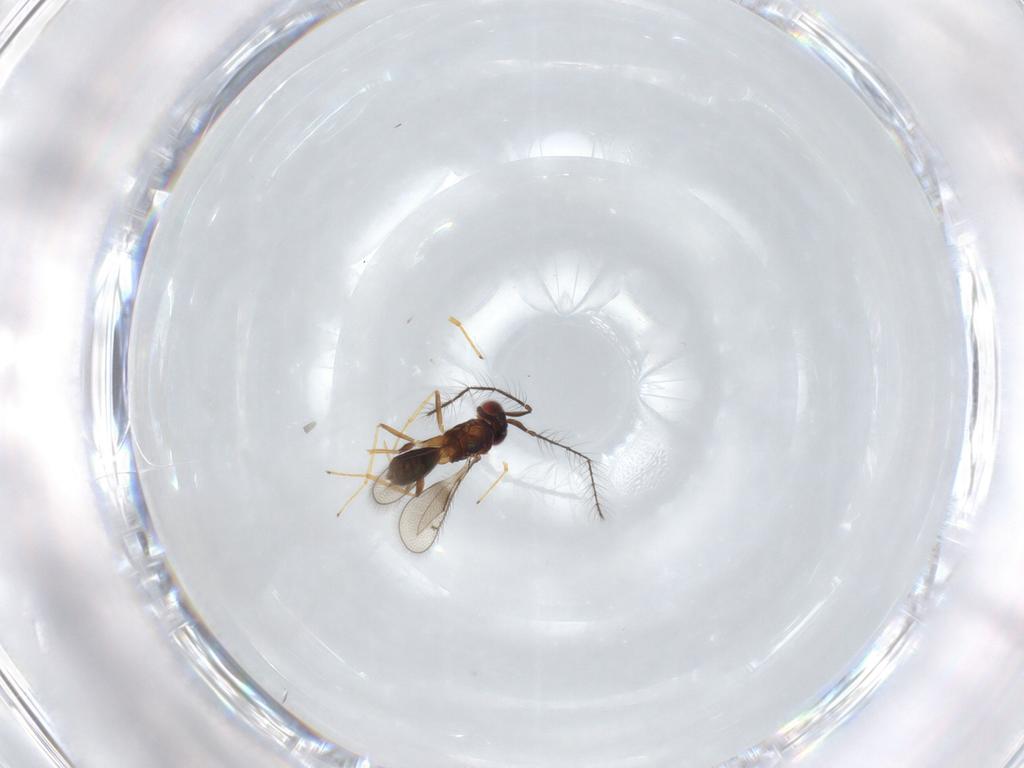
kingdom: Animalia
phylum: Arthropoda
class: Insecta
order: Hymenoptera
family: Eulophidae
